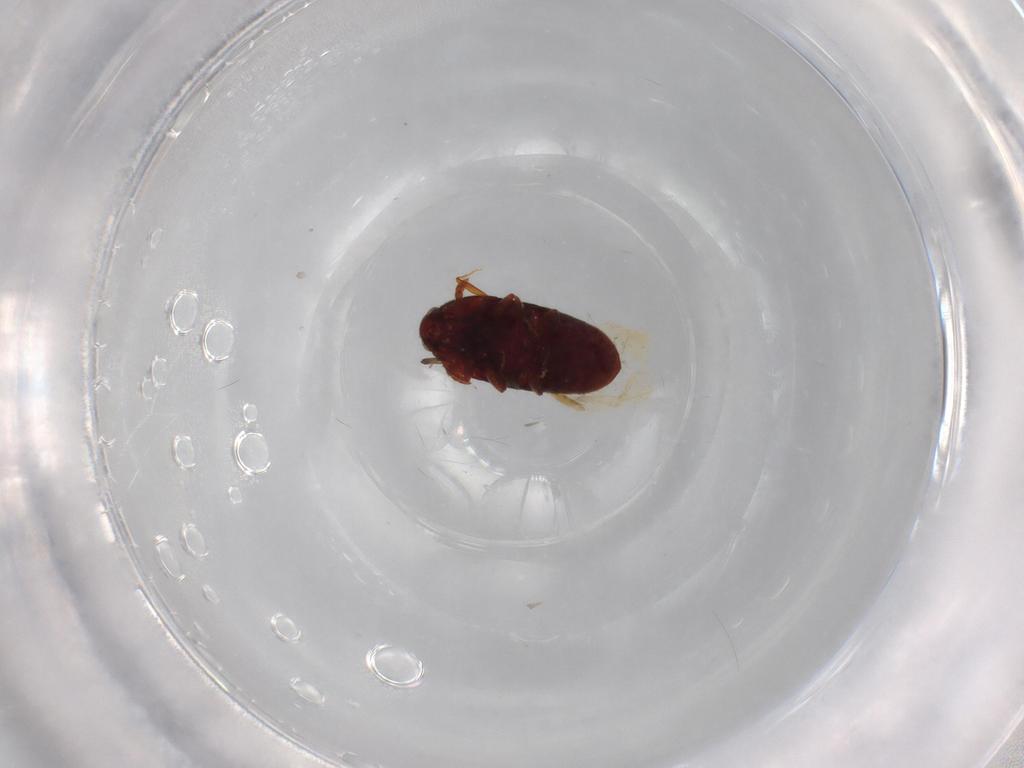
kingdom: Animalia
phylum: Arthropoda
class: Insecta
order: Coleoptera
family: Throscidae
